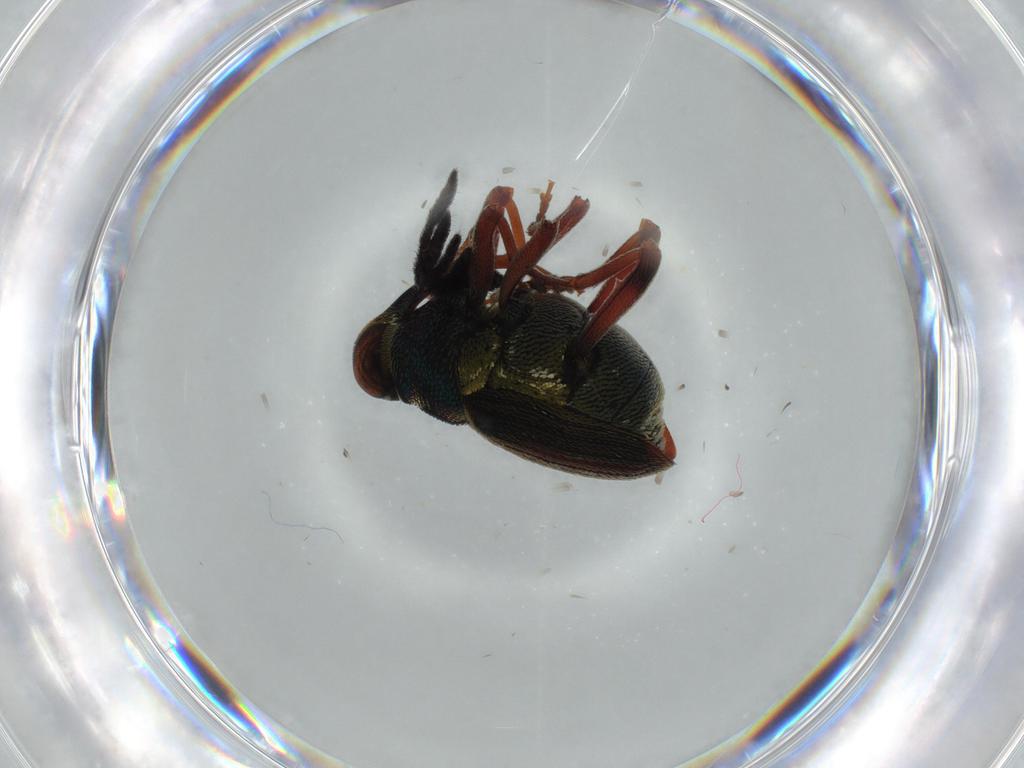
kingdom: Animalia
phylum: Arthropoda
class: Insecta
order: Coleoptera
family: Lycidae
